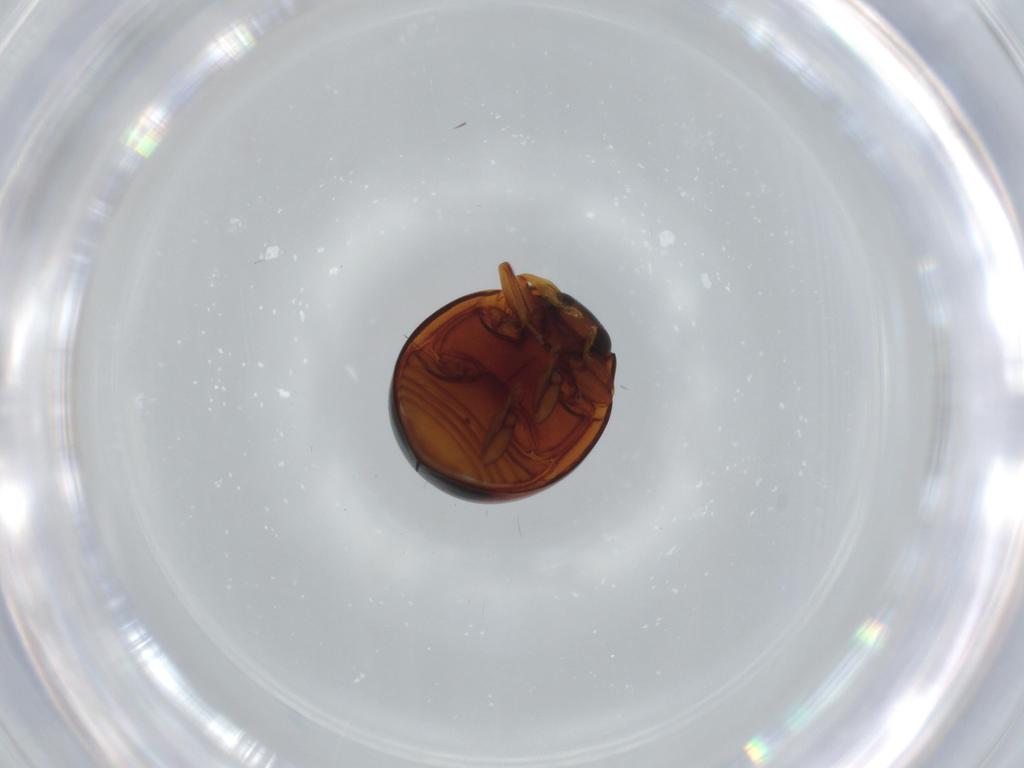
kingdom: Animalia
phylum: Arthropoda
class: Insecta
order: Coleoptera
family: Coccinellidae
